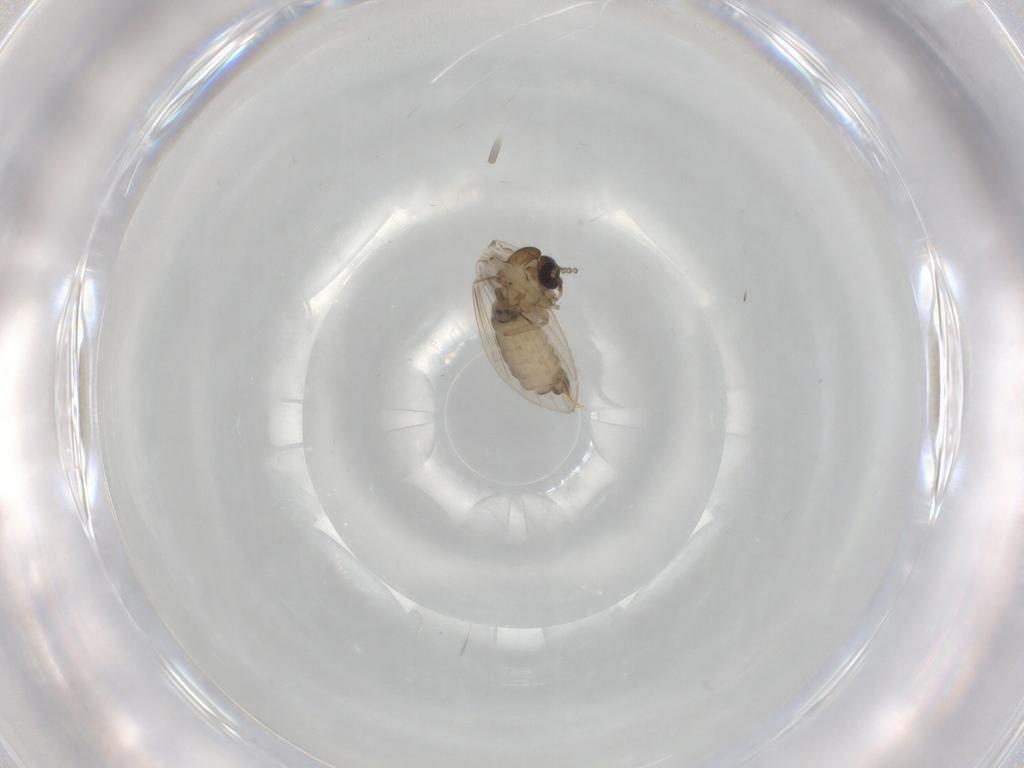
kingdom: Animalia
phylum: Arthropoda
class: Insecta
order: Diptera
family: Psychodidae
